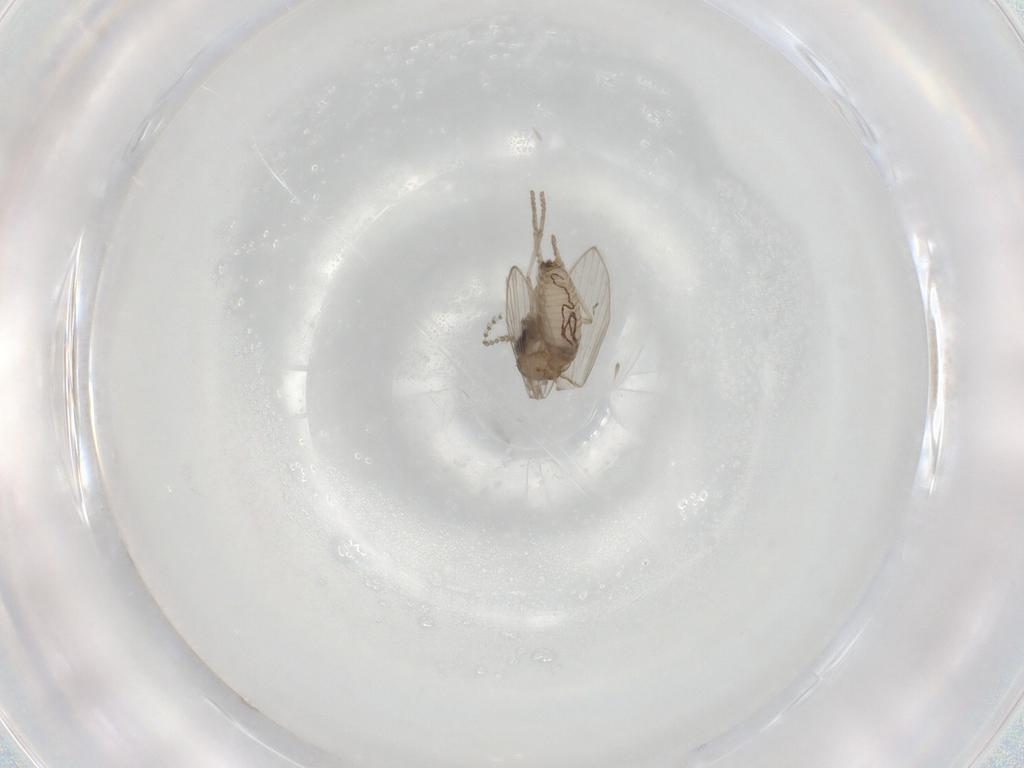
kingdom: Animalia
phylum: Arthropoda
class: Insecta
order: Diptera
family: Psychodidae
